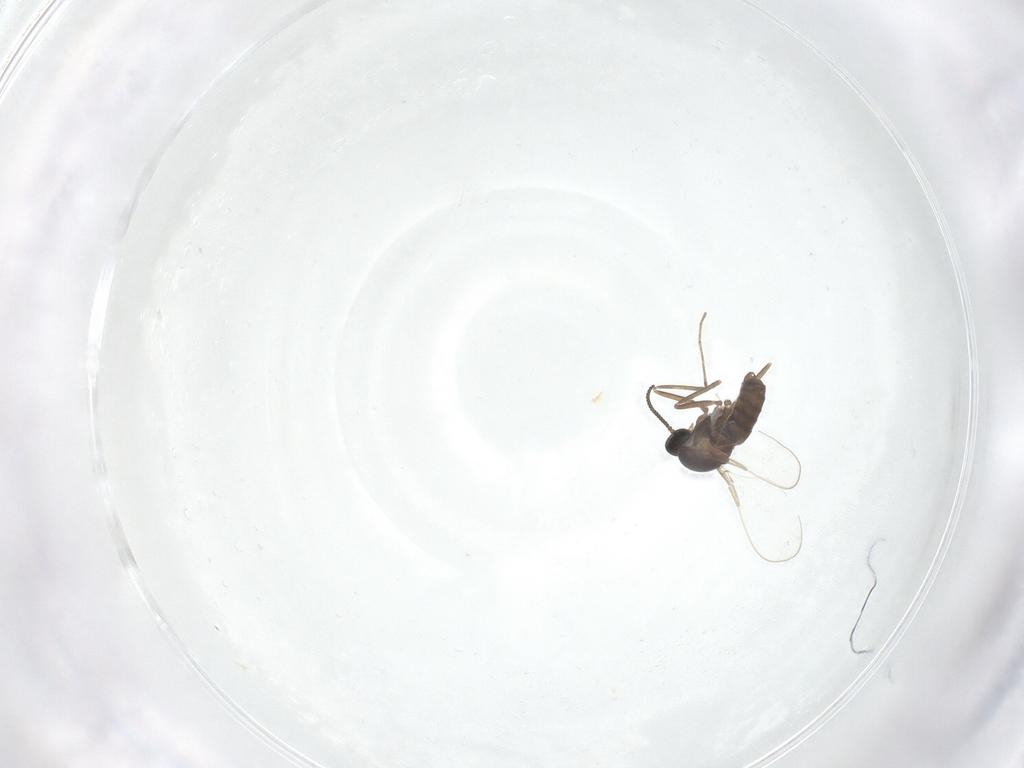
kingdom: Animalia
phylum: Arthropoda
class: Insecta
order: Diptera
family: Cecidomyiidae
